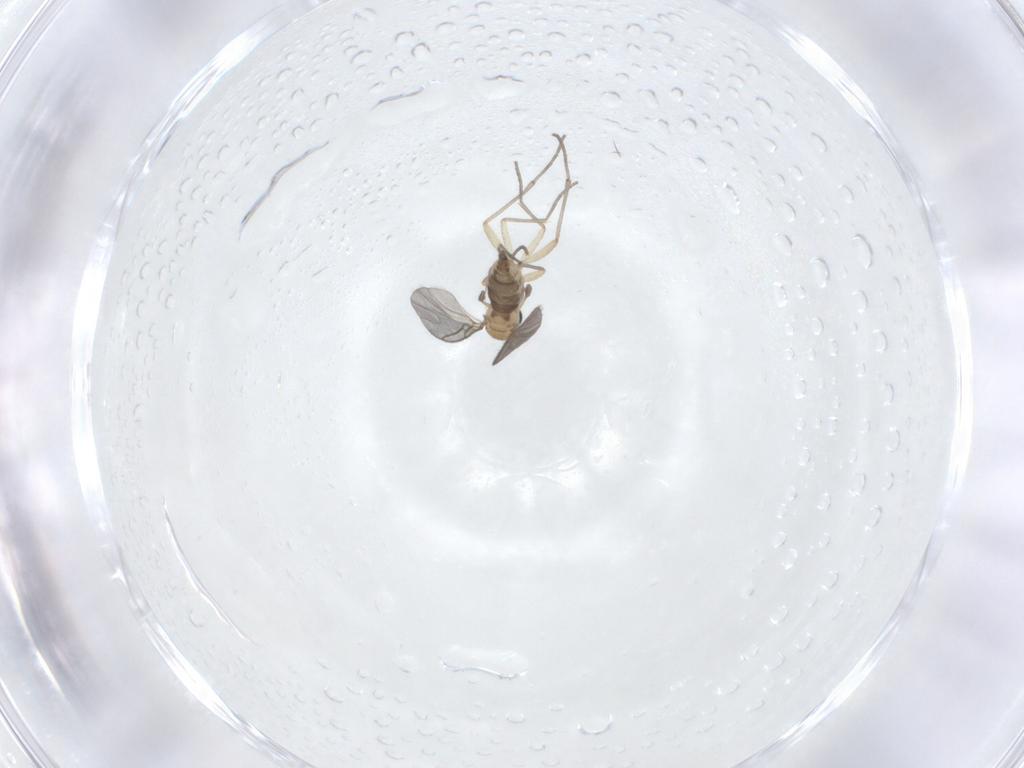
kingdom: Animalia
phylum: Arthropoda
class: Insecta
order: Diptera
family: Sciaridae
